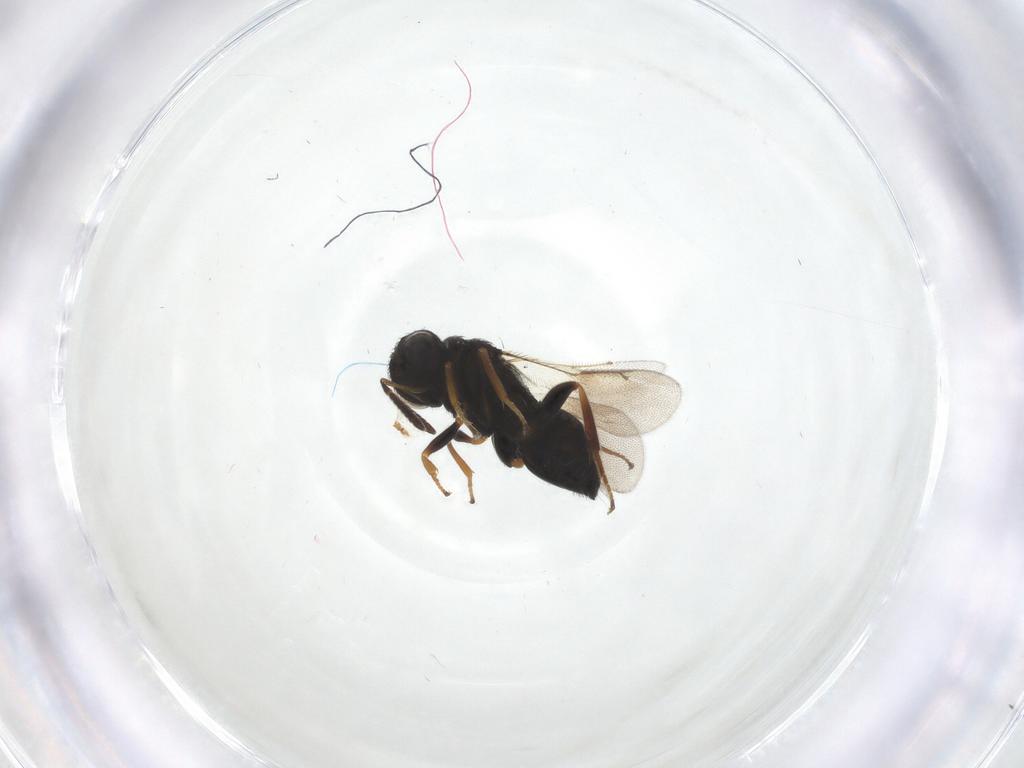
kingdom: Animalia
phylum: Arthropoda
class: Insecta
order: Hymenoptera
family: Pteromalidae
